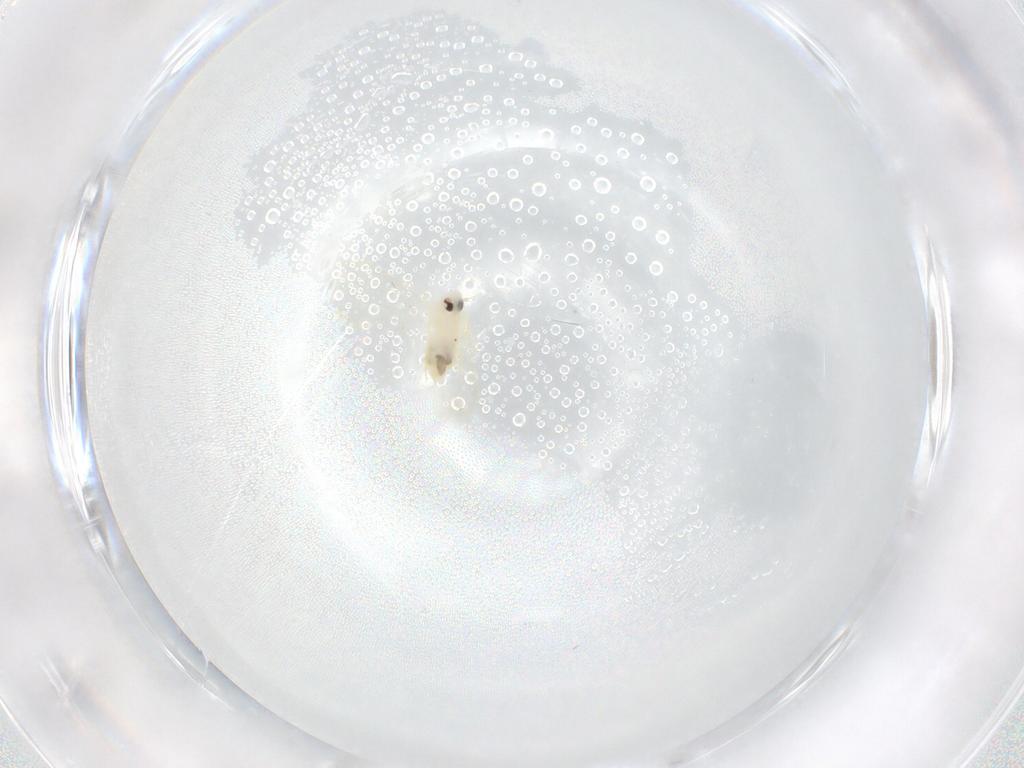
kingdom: Animalia
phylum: Arthropoda
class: Insecta
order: Hemiptera
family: Aleyrodidae
